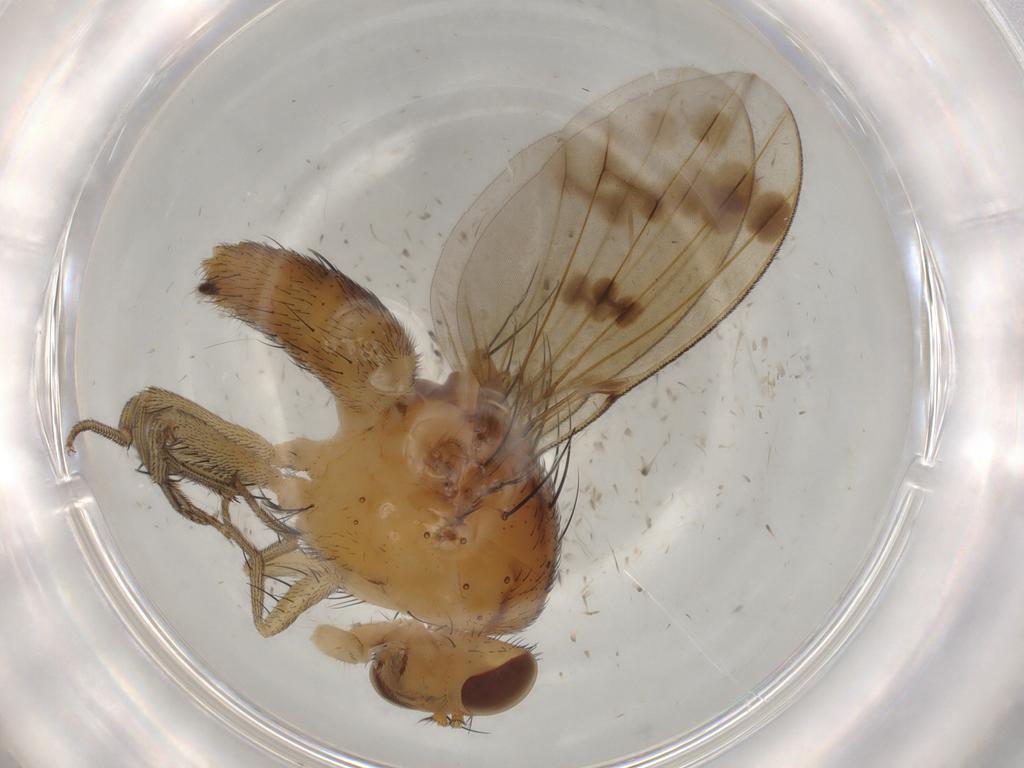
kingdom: Animalia
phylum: Arthropoda
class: Insecta
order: Diptera
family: Lauxaniidae
